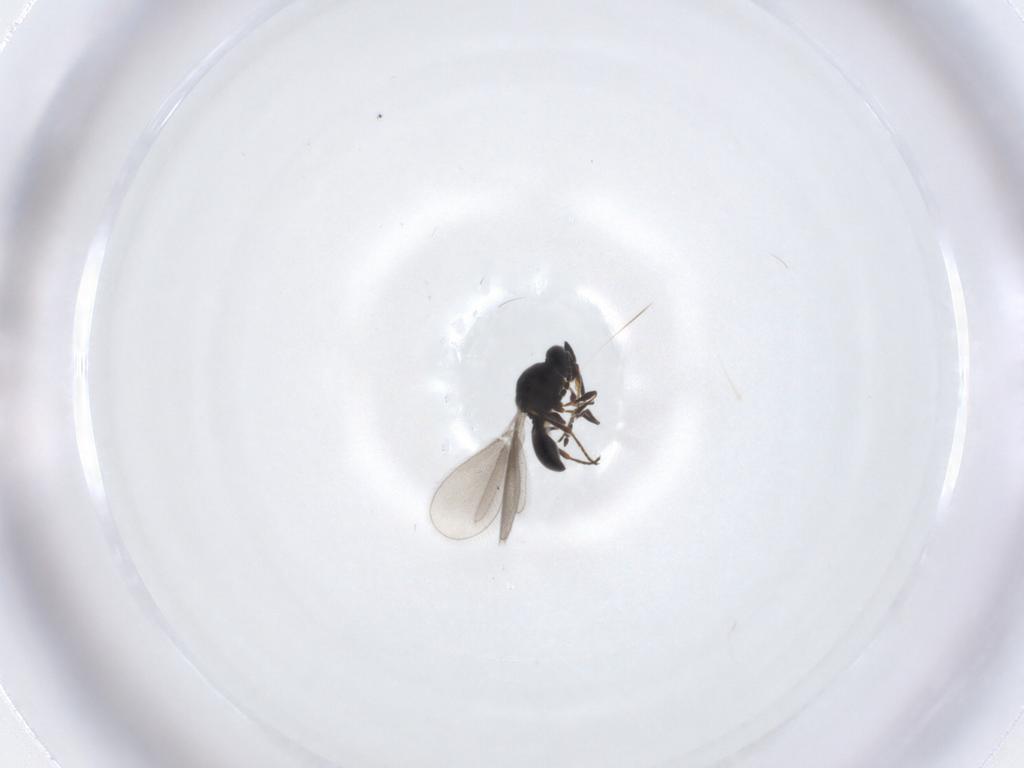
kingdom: Animalia
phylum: Arthropoda
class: Insecta
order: Hymenoptera
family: Platygastridae
